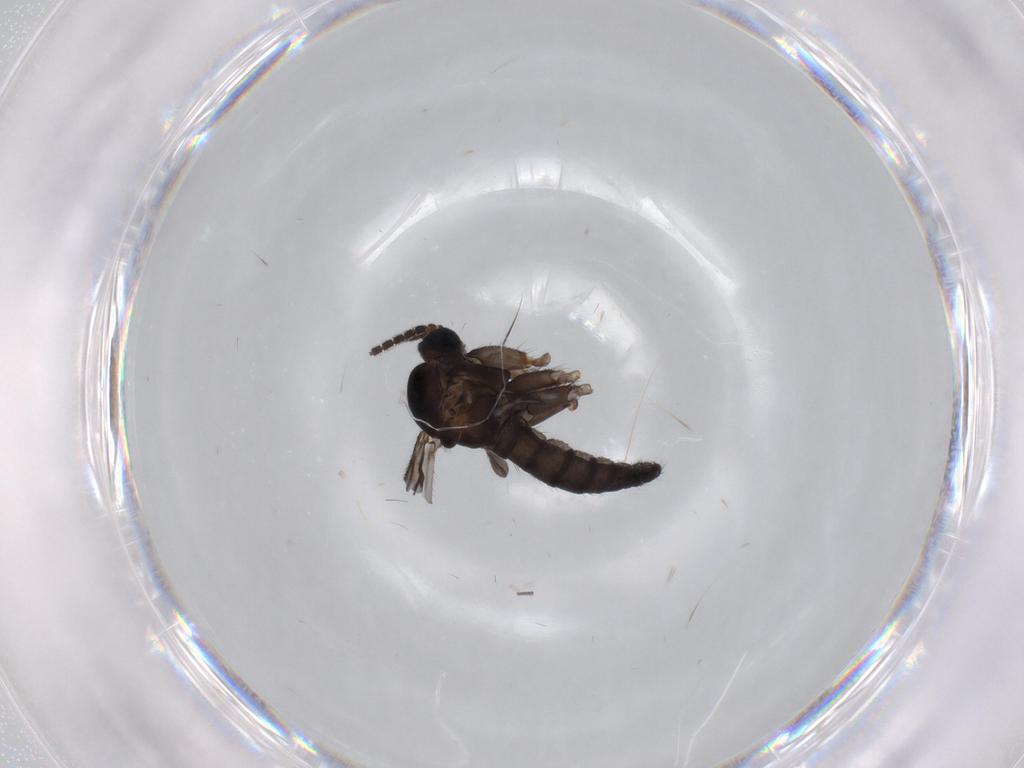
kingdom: Animalia
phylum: Arthropoda
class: Insecta
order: Diptera
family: Sciaridae
